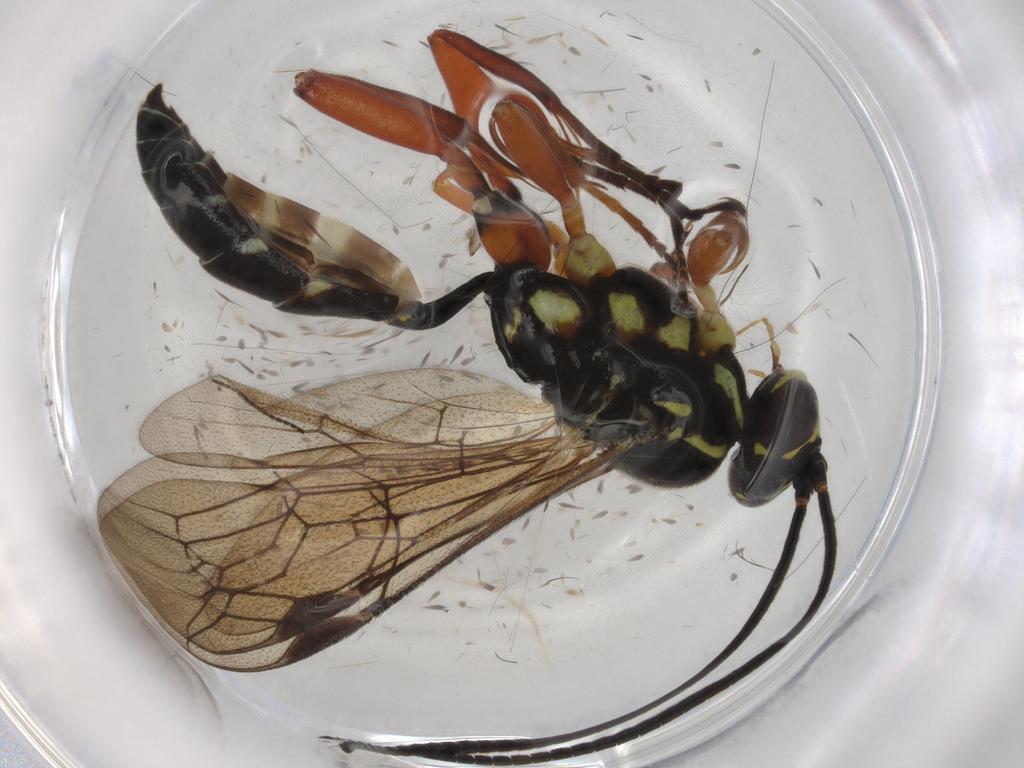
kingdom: Animalia
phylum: Arthropoda
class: Insecta
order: Hymenoptera
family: Ichneumonidae
